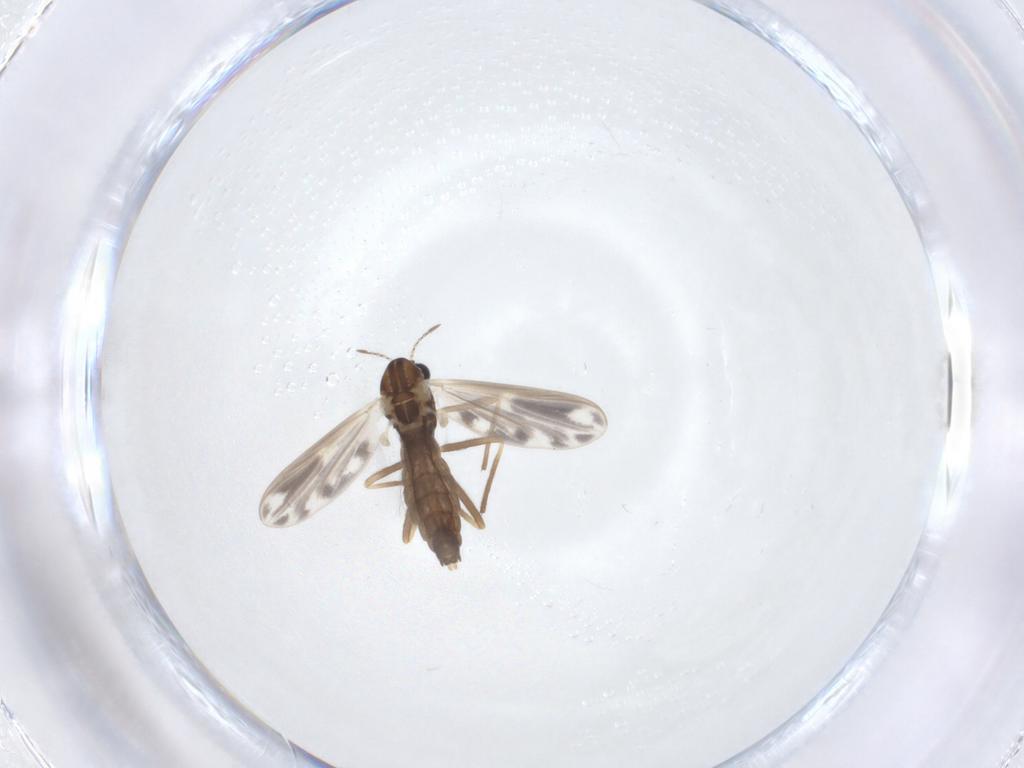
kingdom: Animalia
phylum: Arthropoda
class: Insecta
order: Diptera
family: Chironomidae
